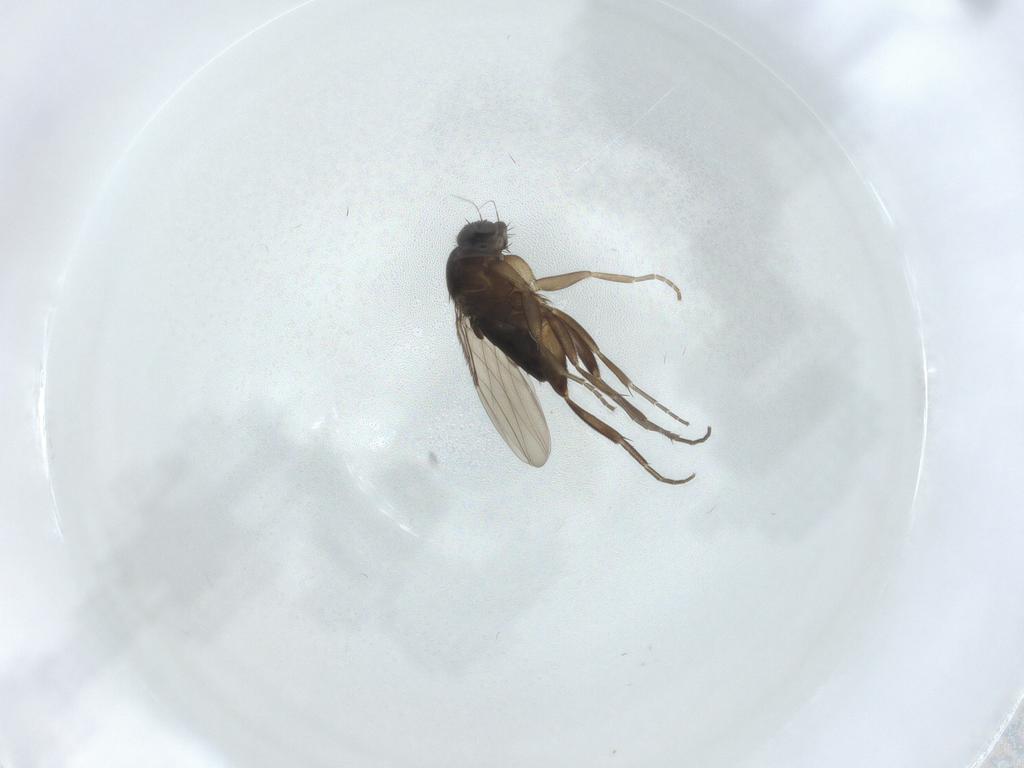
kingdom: Animalia
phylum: Arthropoda
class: Insecta
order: Diptera
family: Phoridae
